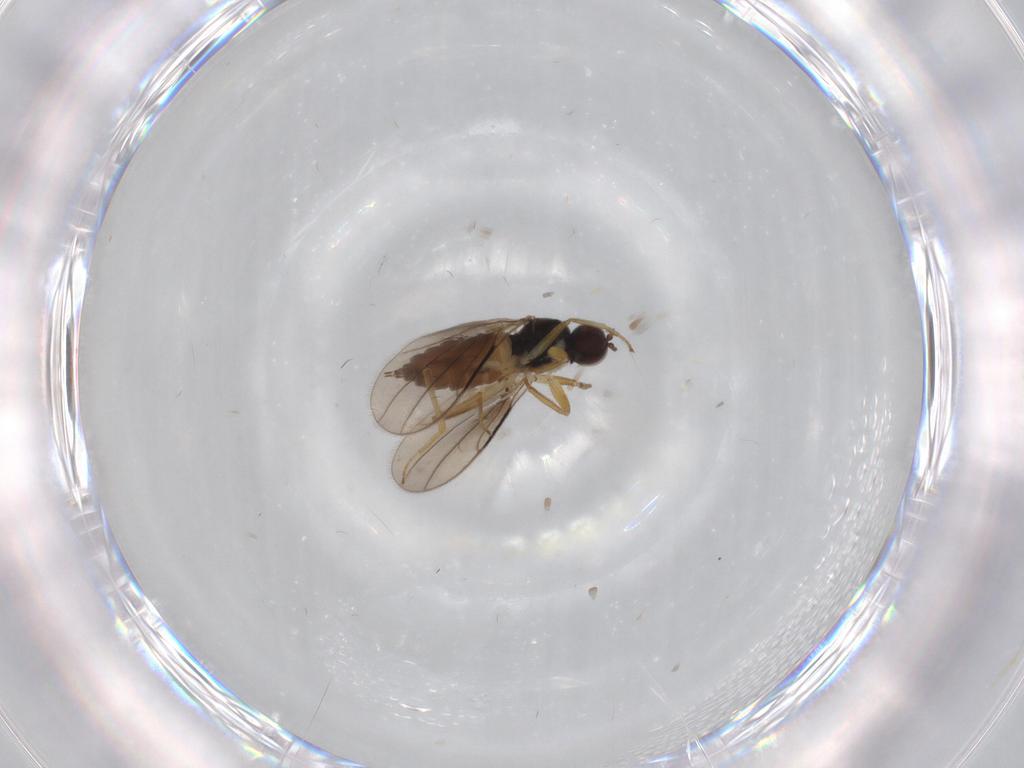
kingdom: Animalia
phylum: Arthropoda
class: Insecta
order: Diptera
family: Hybotidae
